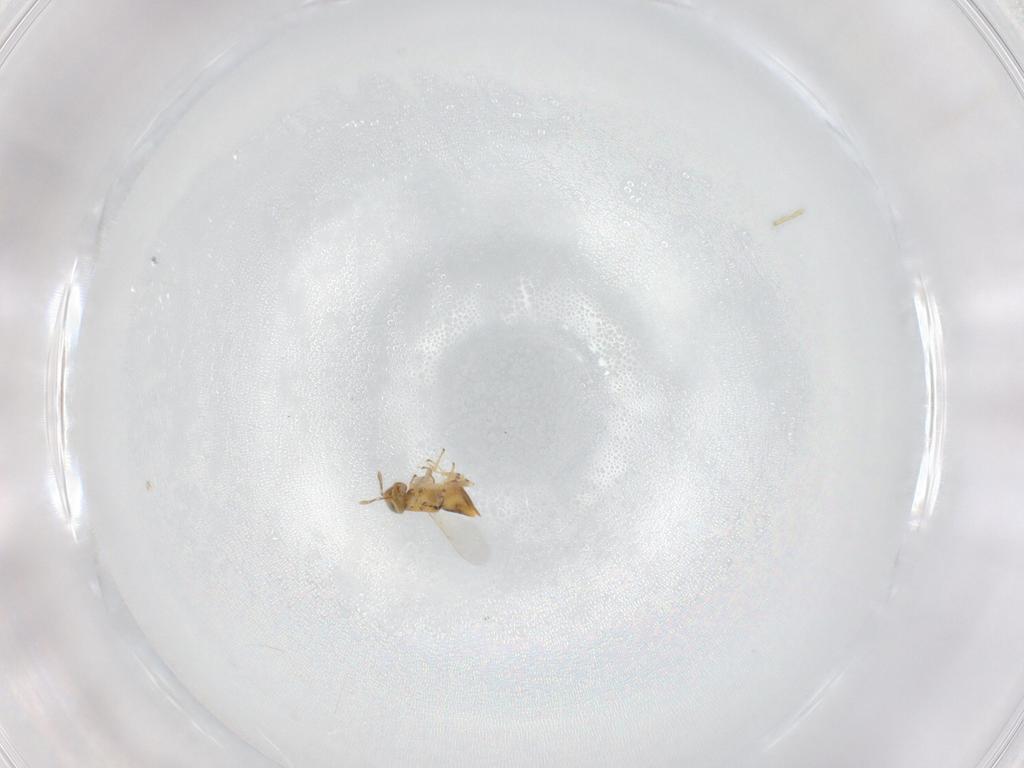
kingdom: Animalia
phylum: Arthropoda
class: Insecta
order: Hymenoptera
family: Encyrtidae
